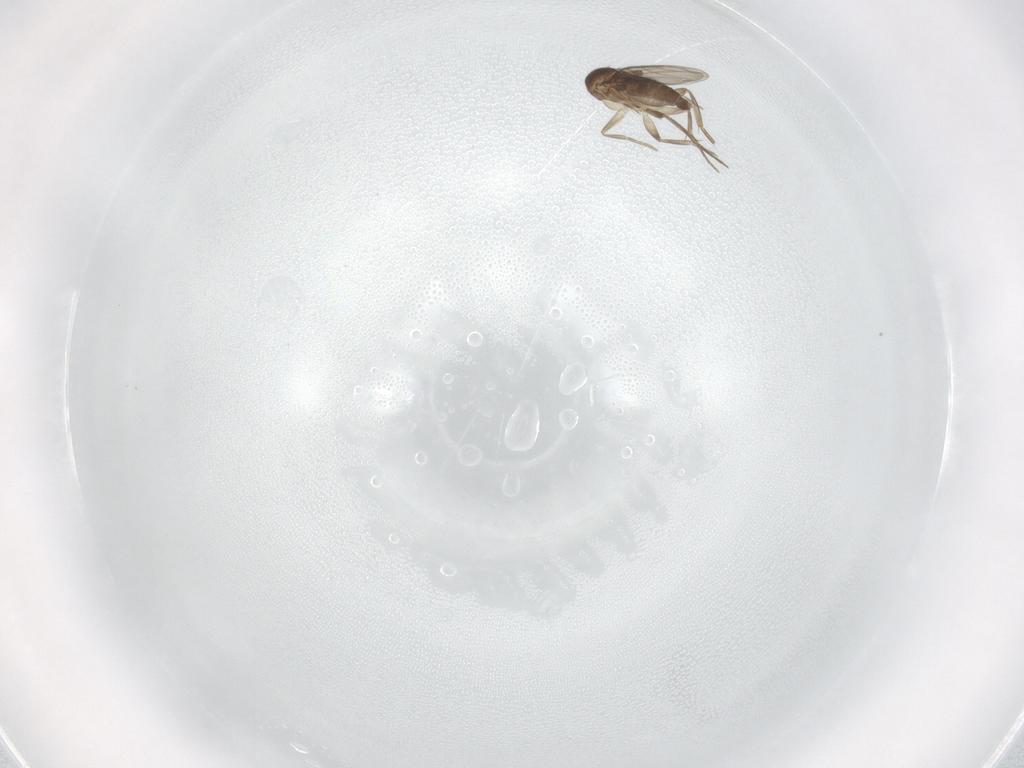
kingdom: Animalia
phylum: Arthropoda
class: Insecta
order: Diptera
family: Phoridae
